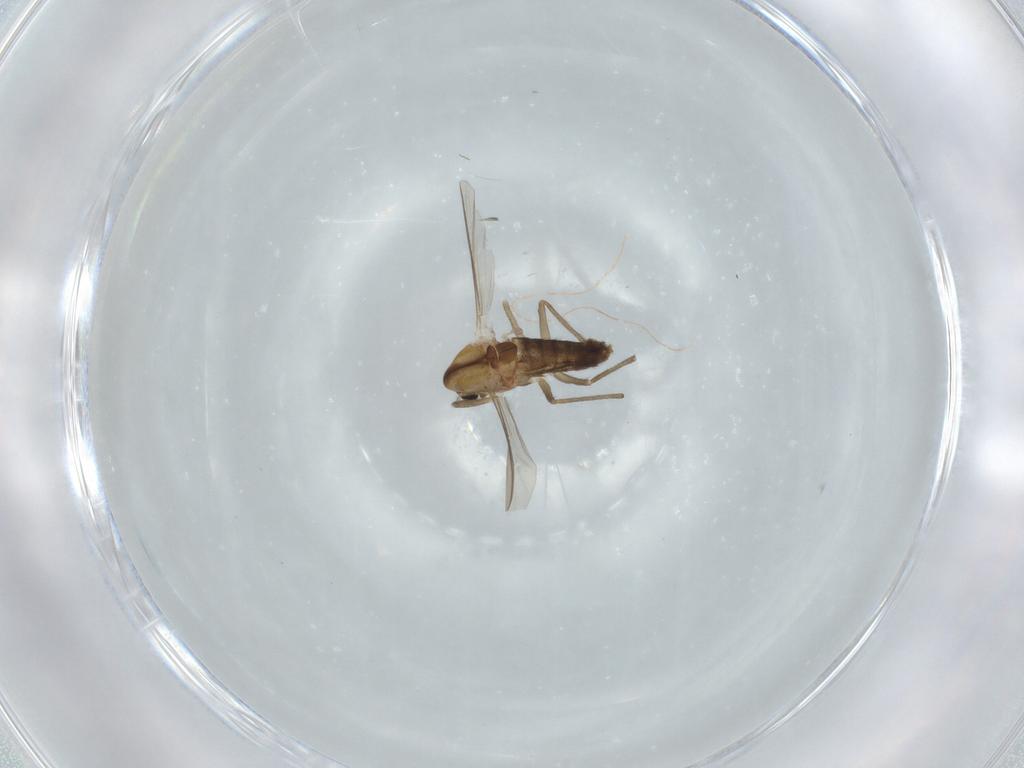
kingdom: Animalia
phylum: Arthropoda
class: Insecta
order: Diptera
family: Chironomidae
